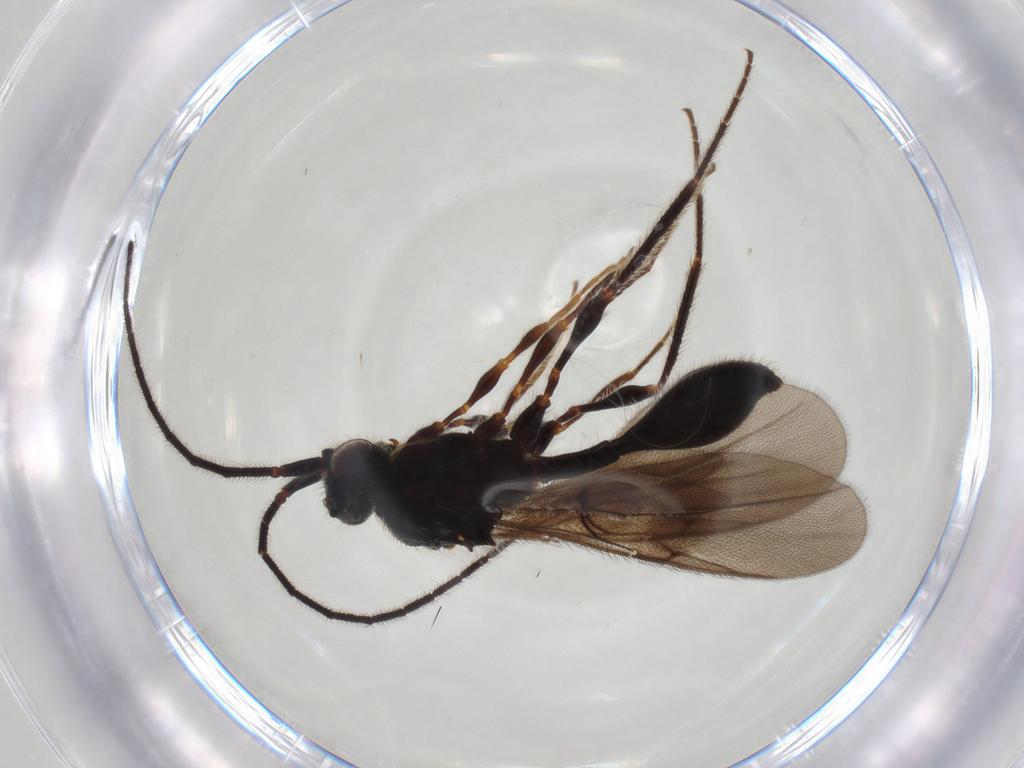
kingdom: Animalia
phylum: Arthropoda
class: Insecta
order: Hymenoptera
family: Diapriidae
